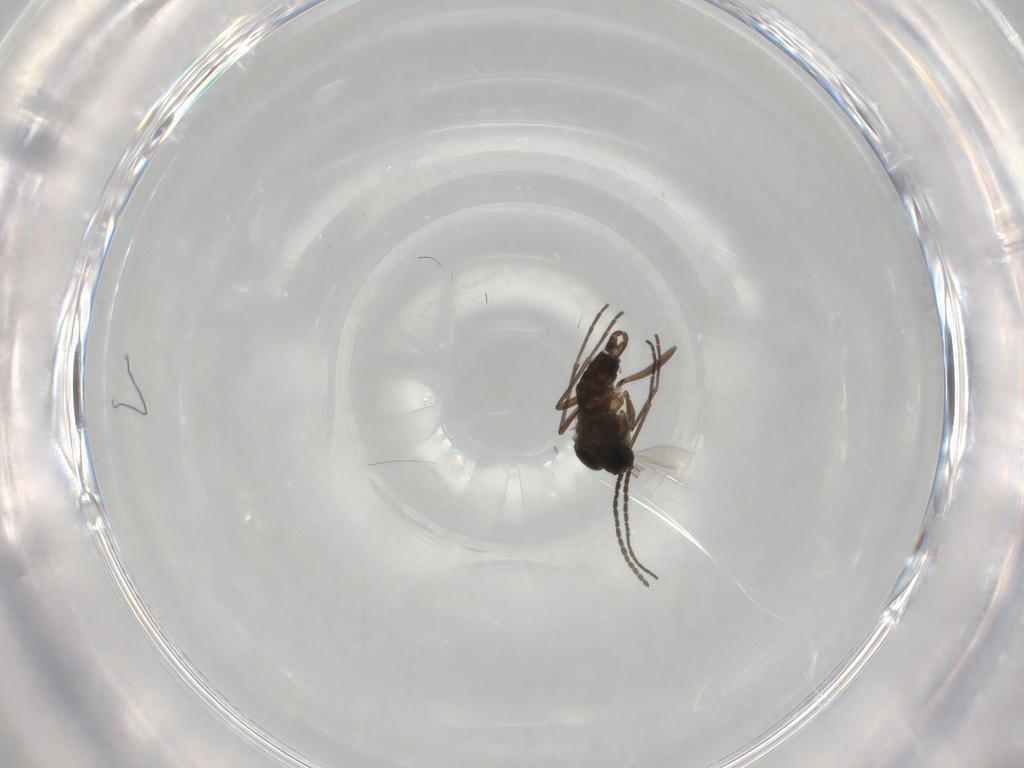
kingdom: Animalia
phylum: Arthropoda
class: Insecta
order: Diptera
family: Sciaridae
